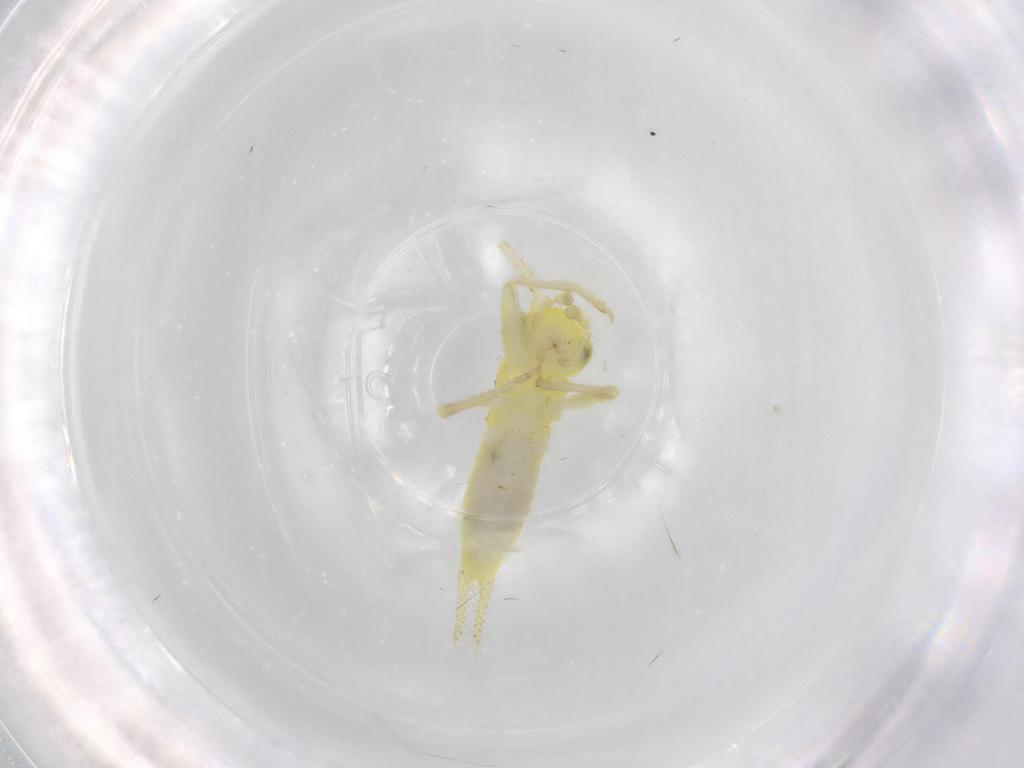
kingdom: Animalia
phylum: Arthropoda
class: Insecta
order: Orthoptera
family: Trigonidiidae
